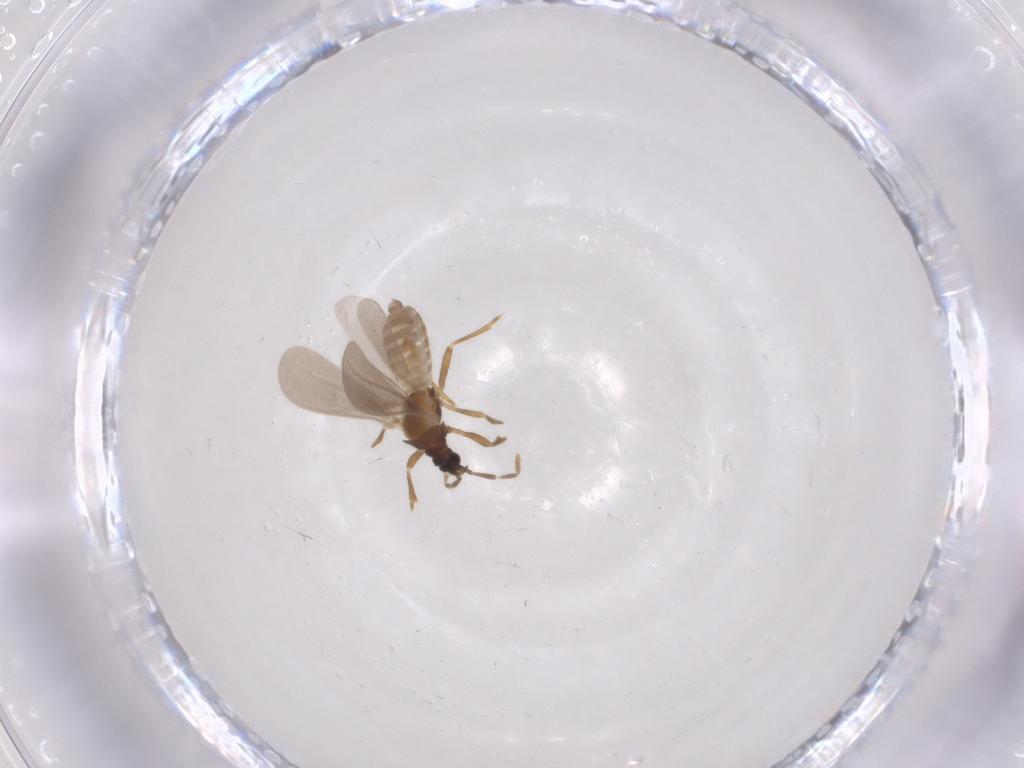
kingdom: Animalia
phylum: Arthropoda
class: Insecta
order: Hemiptera
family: Enicocephalidae
